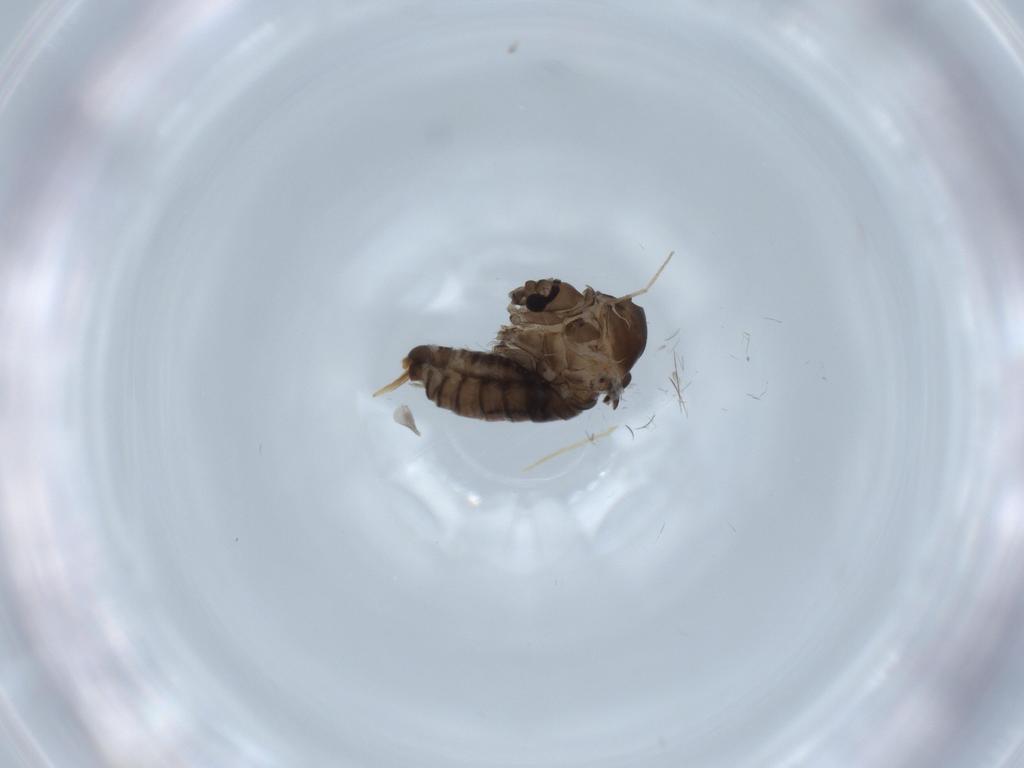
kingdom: Animalia
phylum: Arthropoda
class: Insecta
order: Diptera
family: Psychodidae
